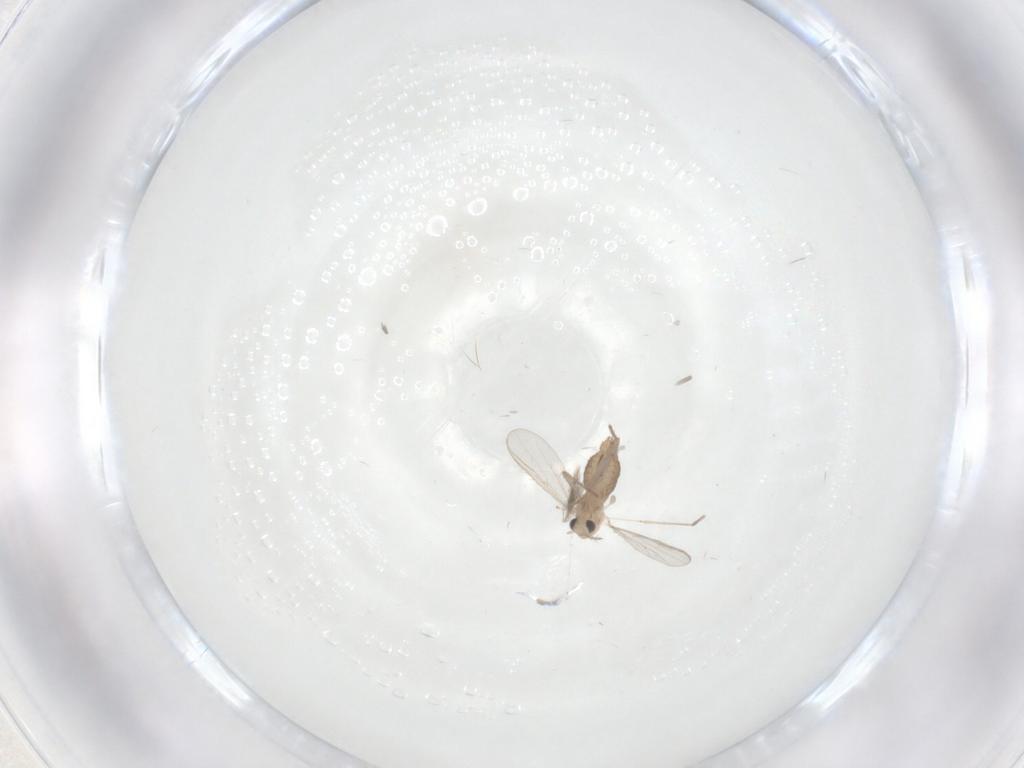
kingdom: Animalia
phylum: Arthropoda
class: Insecta
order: Diptera
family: Chironomidae
